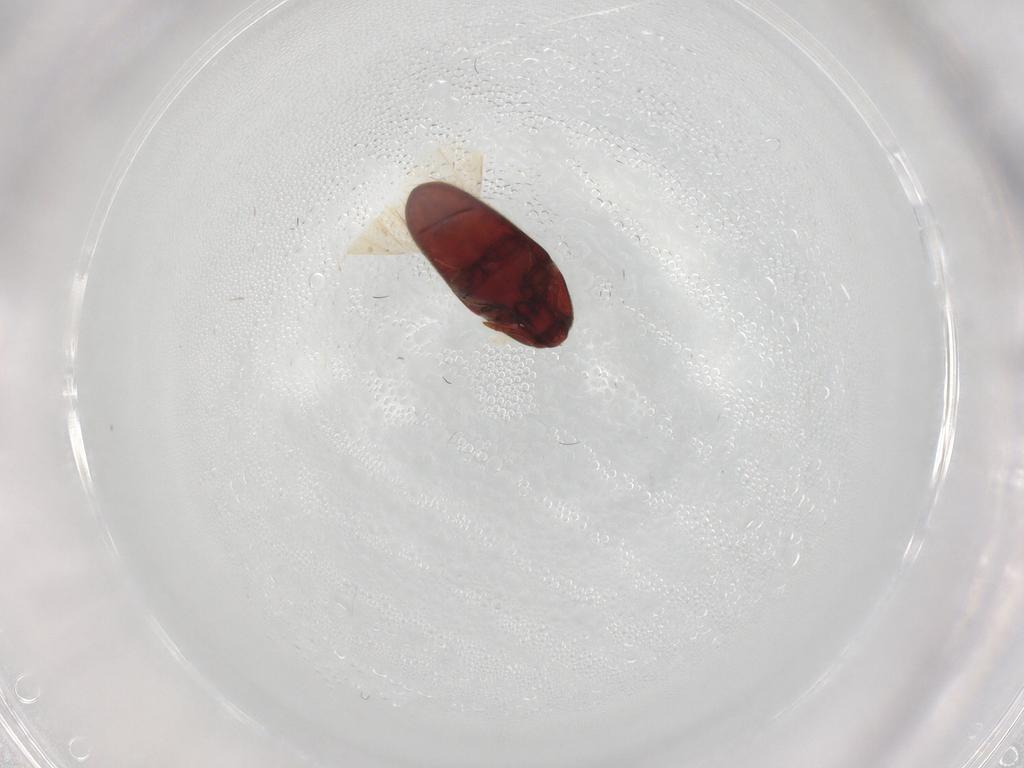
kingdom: Animalia
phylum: Arthropoda
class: Insecta
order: Coleoptera
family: Throscidae
